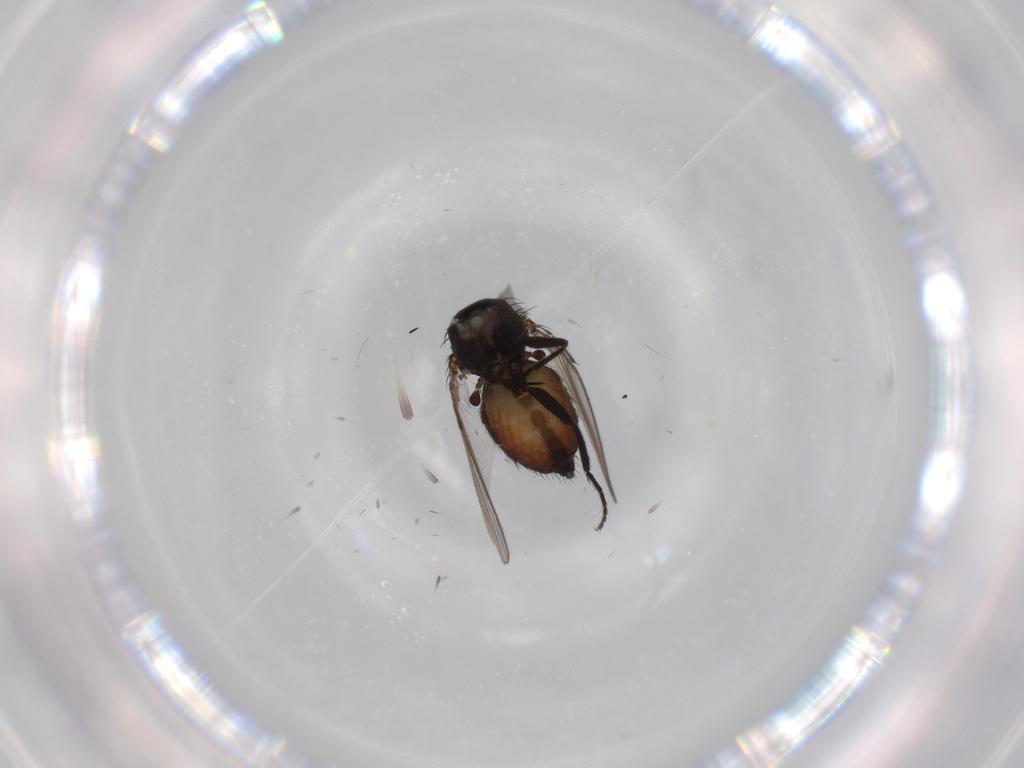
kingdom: Animalia
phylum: Arthropoda
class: Insecta
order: Diptera
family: Milichiidae
